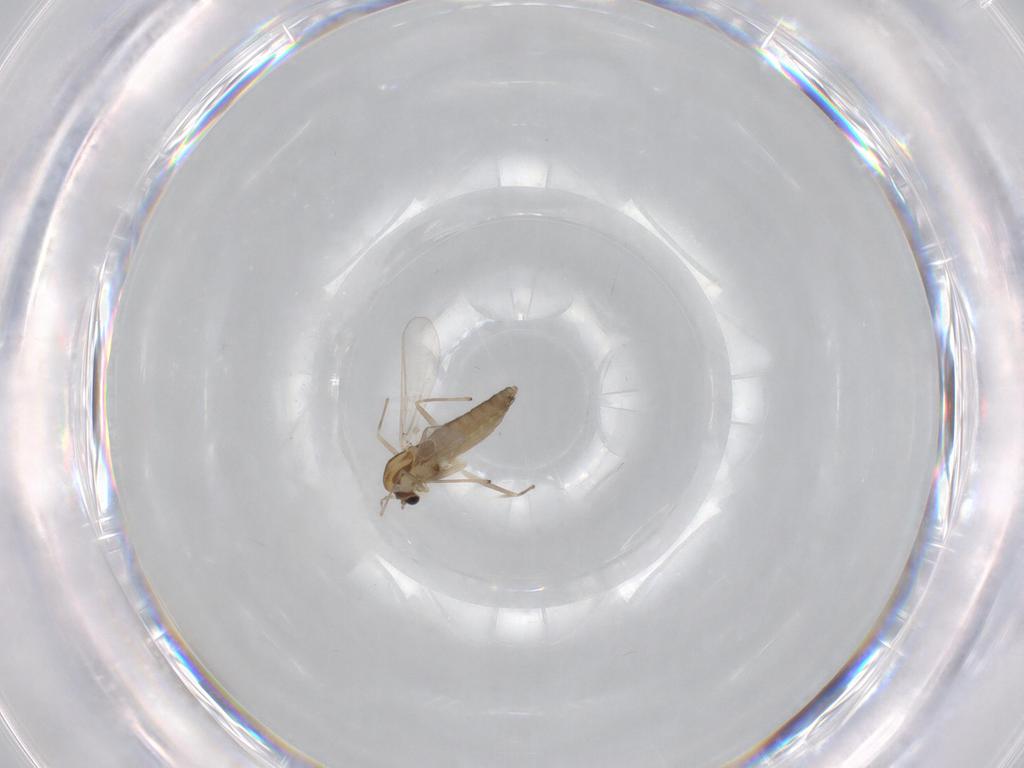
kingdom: Animalia
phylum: Arthropoda
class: Insecta
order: Diptera
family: Chironomidae
